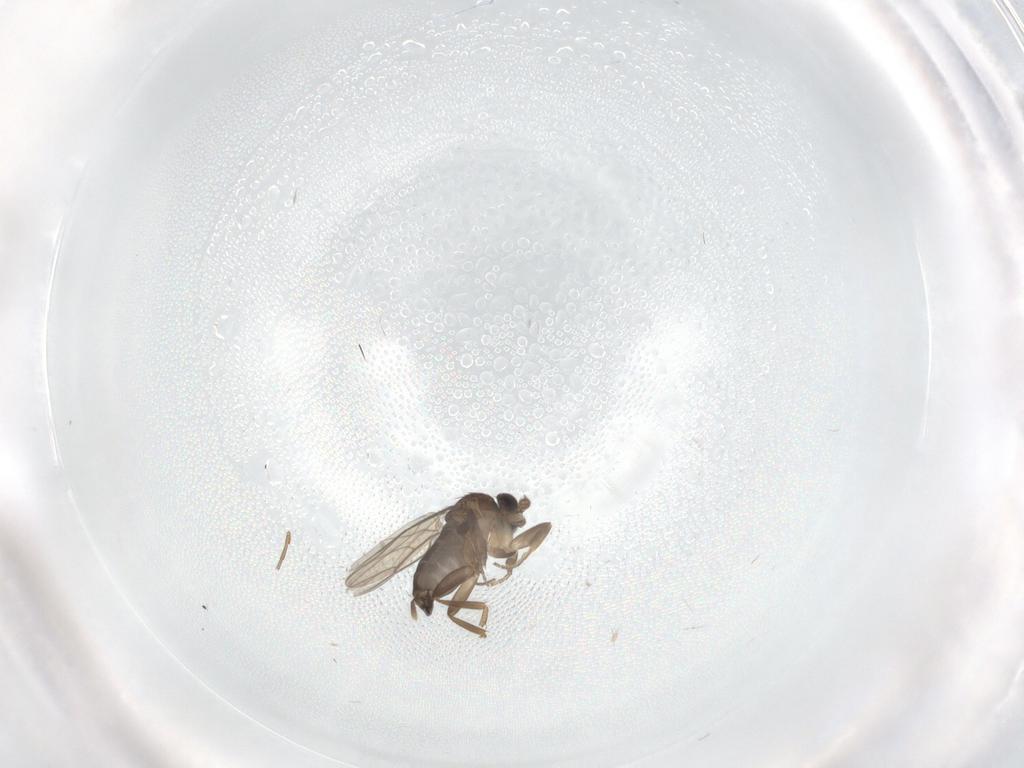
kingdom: Animalia
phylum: Arthropoda
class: Insecta
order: Diptera
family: Phoridae
